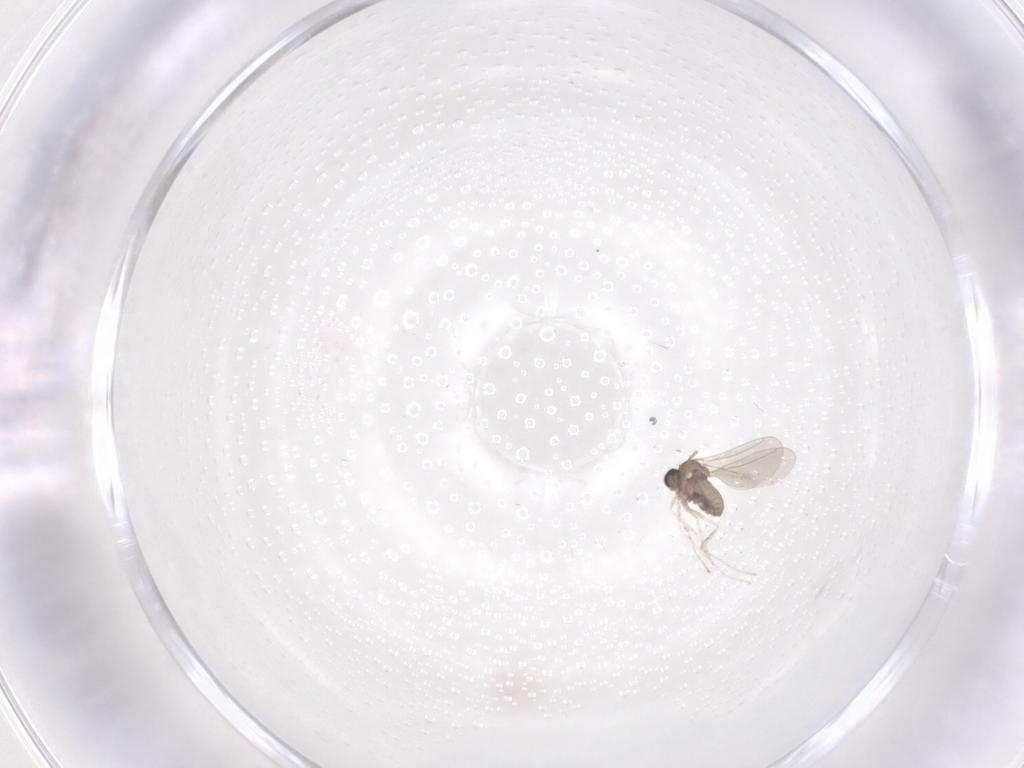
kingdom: Animalia
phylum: Arthropoda
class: Insecta
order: Diptera
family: Cecidomyiidae
